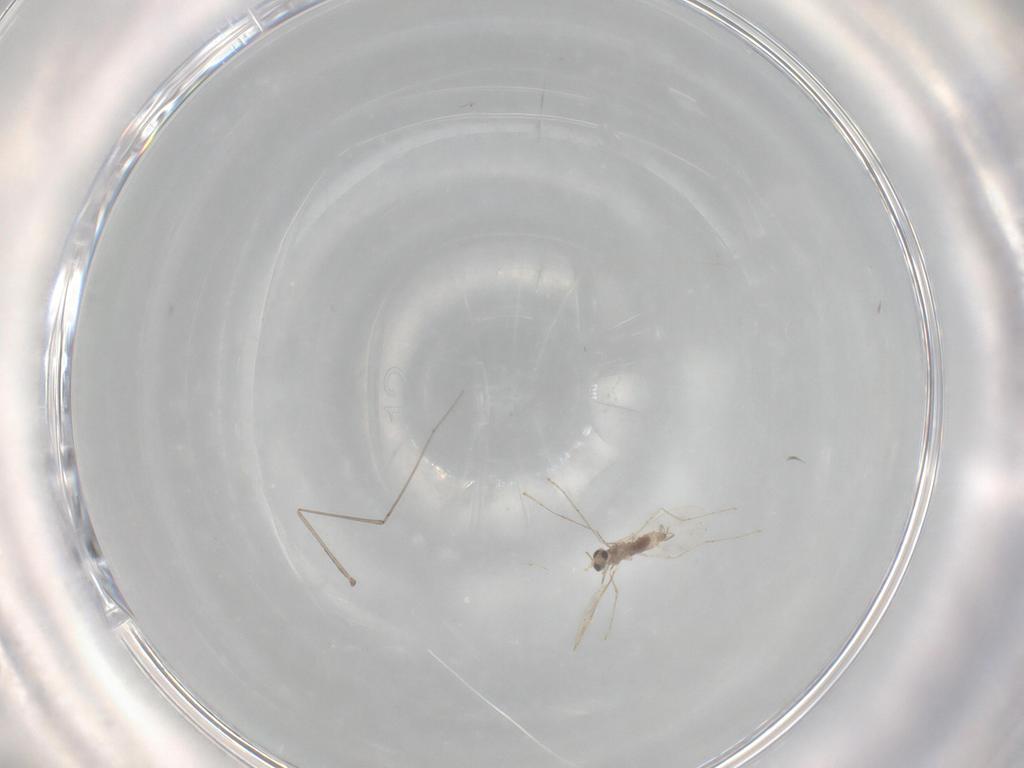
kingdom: Animalia
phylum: Arthropoda
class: Insecta
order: Diptera
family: Cecidomyiidae
